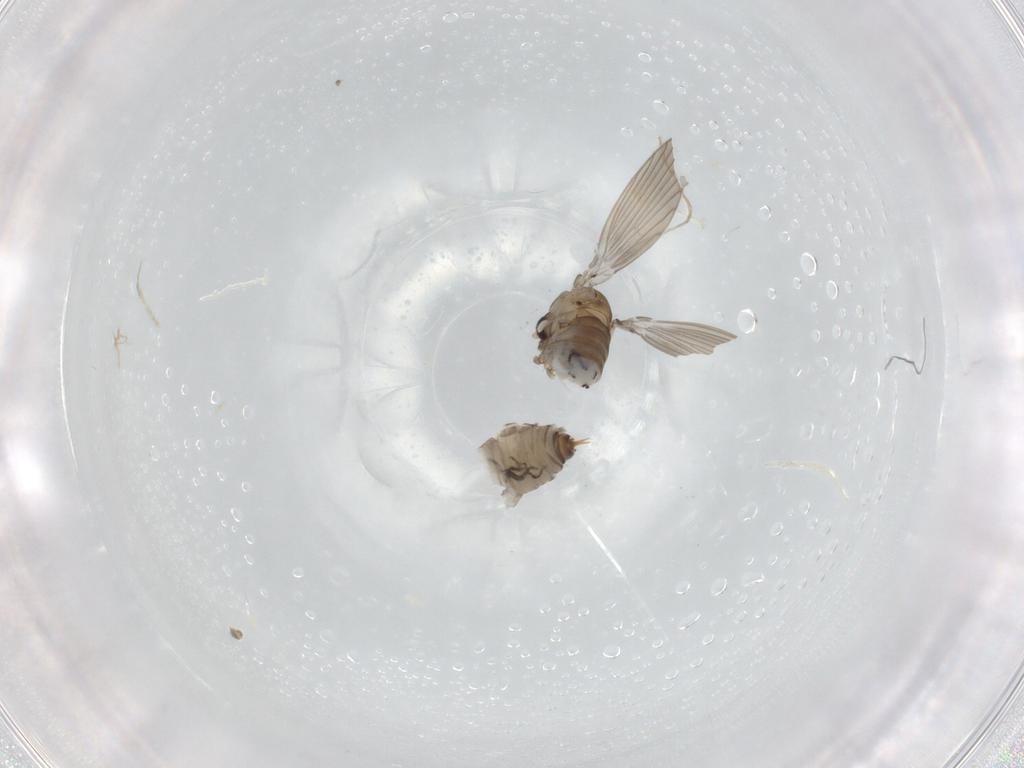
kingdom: Animalia
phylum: Arthropoda
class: Insecta
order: Diptera
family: Psychodidae
